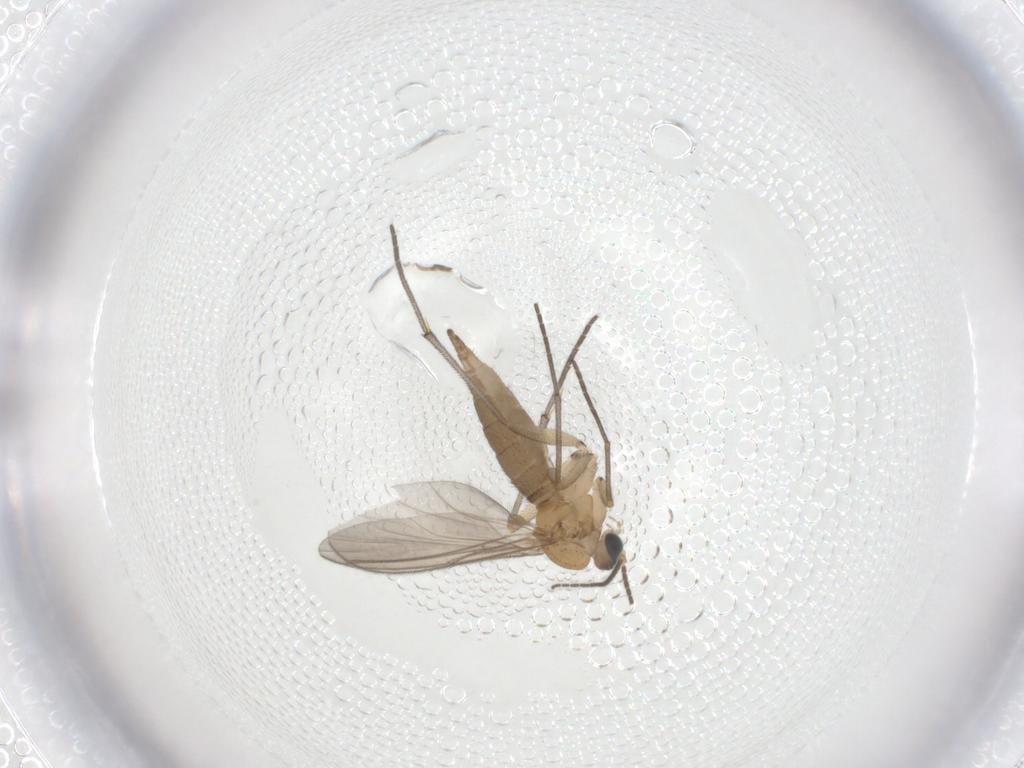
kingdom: Animalia
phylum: Arthropoda
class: Insecta
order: Diptera
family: Sciaridae
